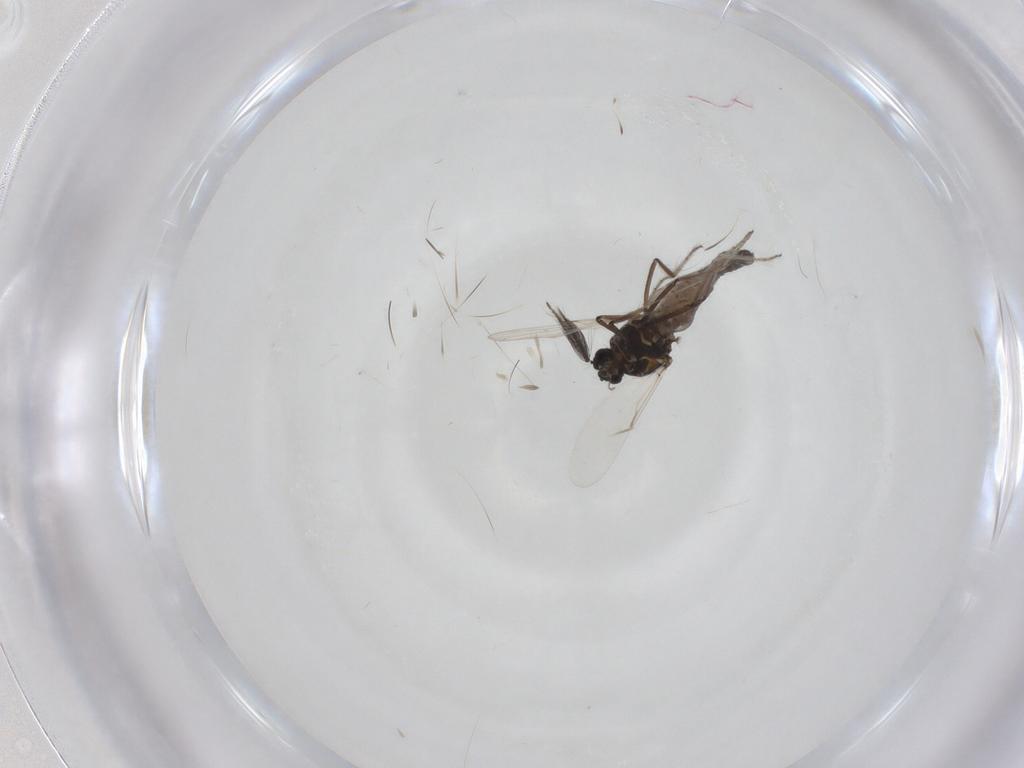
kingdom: Animalia
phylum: Arthropoda
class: Insecta
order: Diptera
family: Ceratopogonidae
